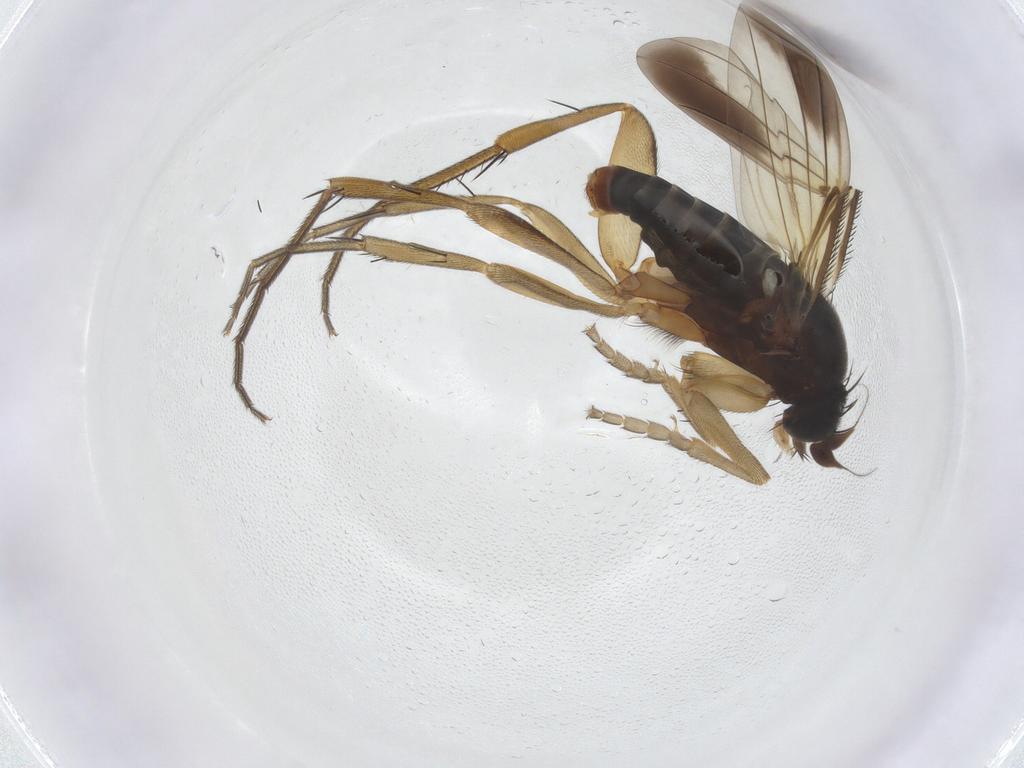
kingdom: Animalia
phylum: Arthropoda
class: Insecta
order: Diptera
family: Phoridae
